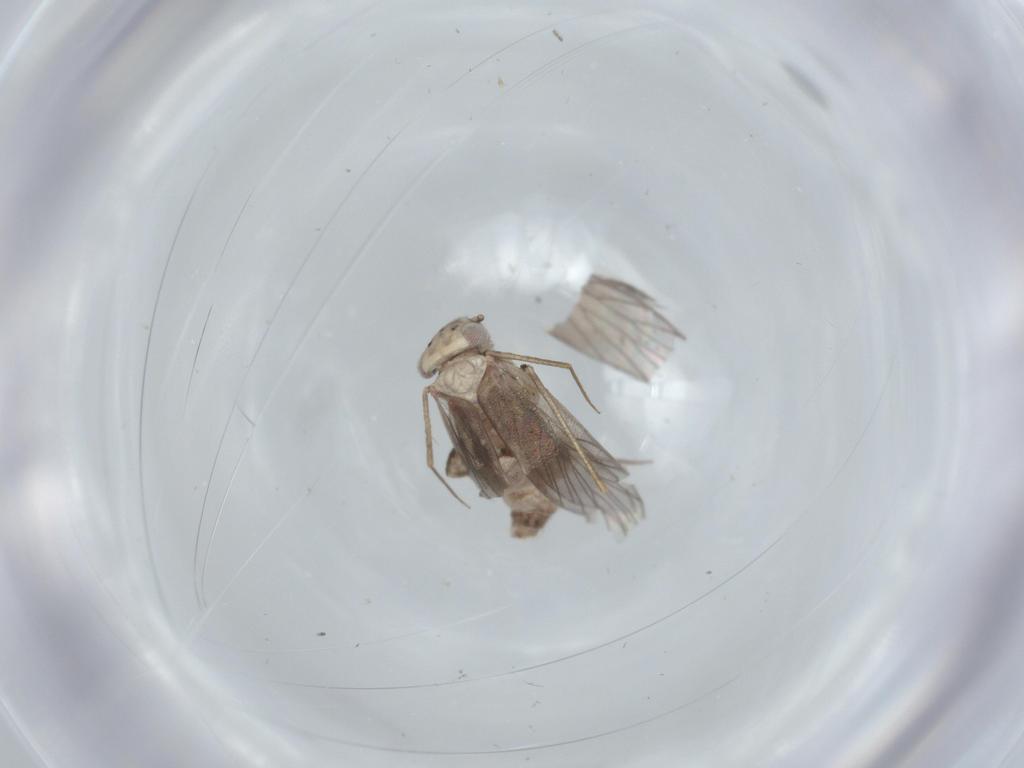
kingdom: Animalia
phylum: Arthropoda
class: Insecta
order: Psocodea
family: Lepidopsocidae
